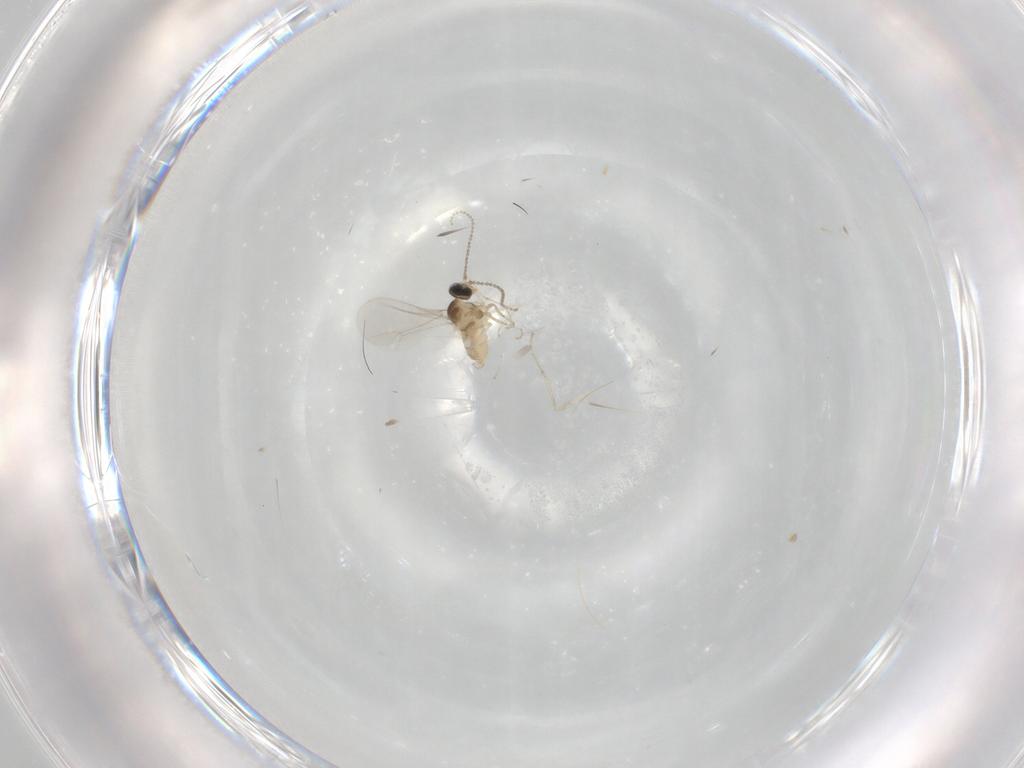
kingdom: Animalia
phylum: Arthropoda
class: Insecta
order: Diptera
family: Cecidomyiidae
